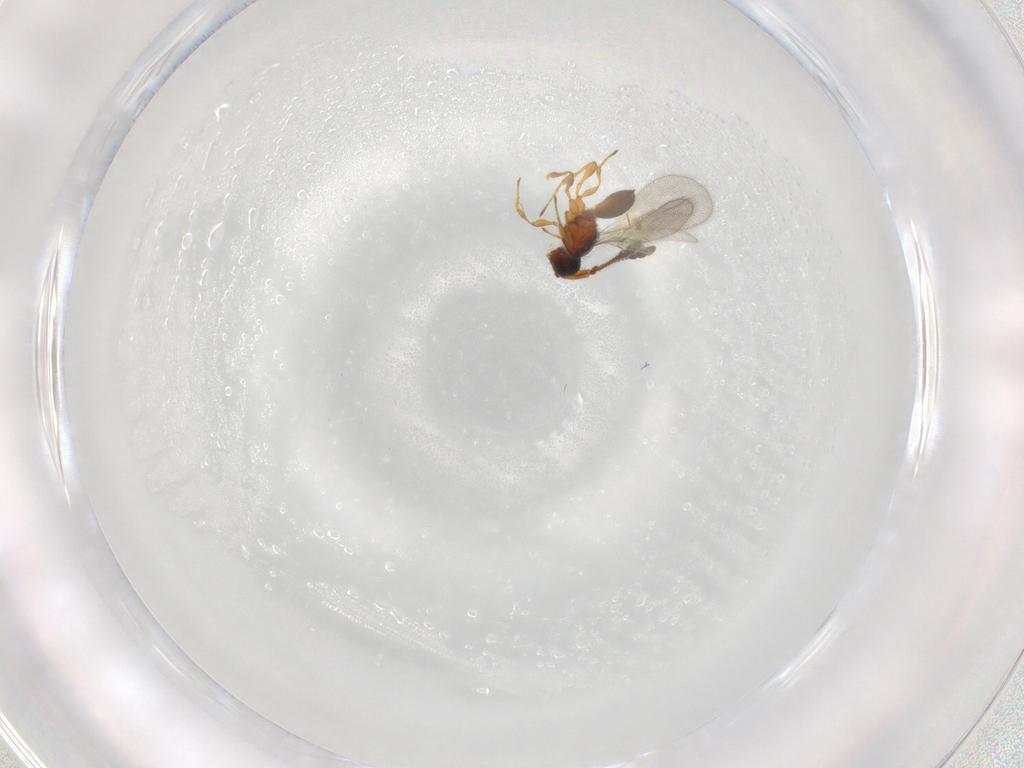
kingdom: Animalia
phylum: Arthropoda
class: Insecta
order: Hymenoptera
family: Diapriidae
